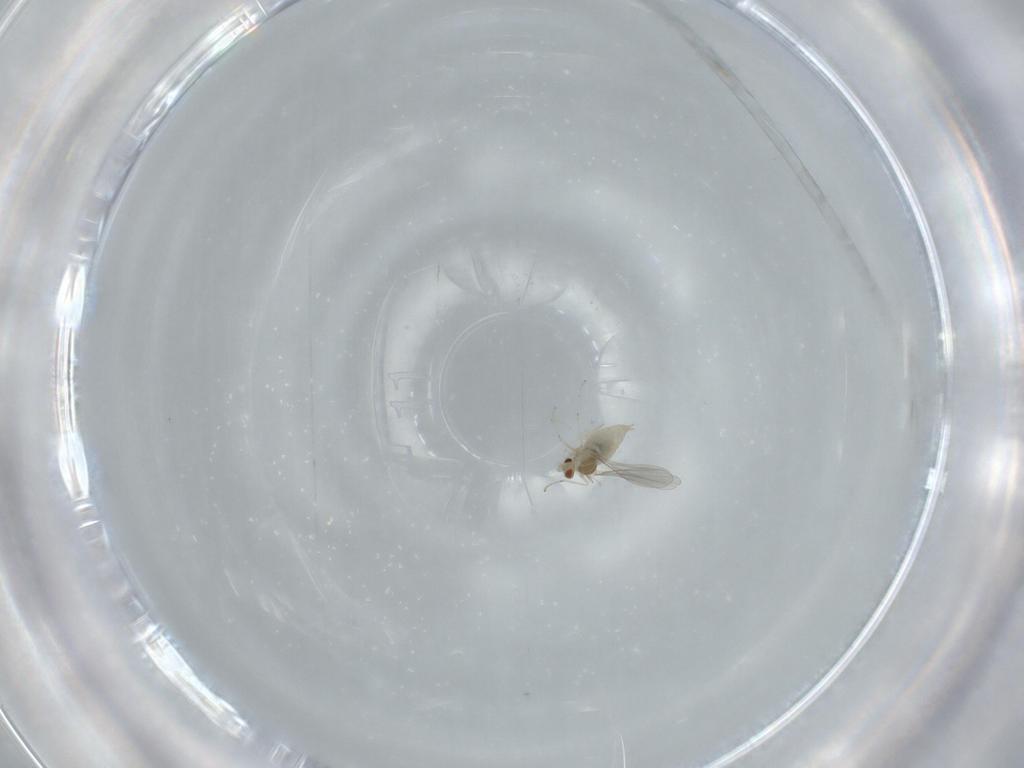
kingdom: Animalia
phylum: Arthropoda
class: Insecta
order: Diptera
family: Cecidomyiidae
